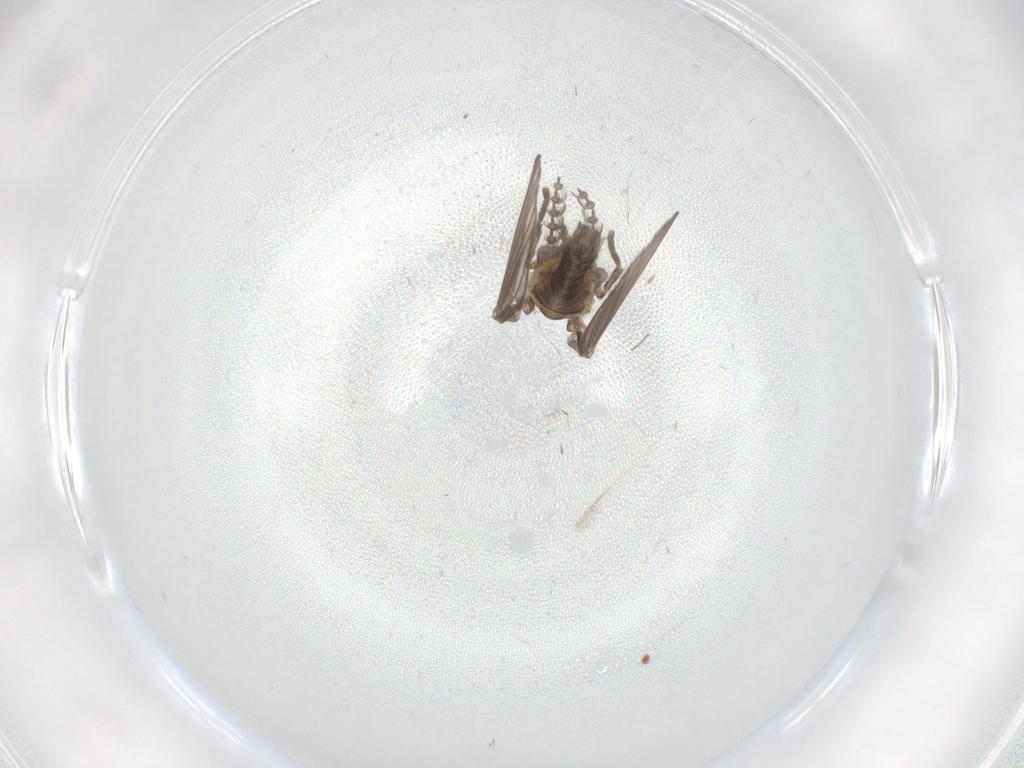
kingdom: Animalia
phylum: Arthropoda
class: Insecta
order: Diptera
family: Psychodidae
